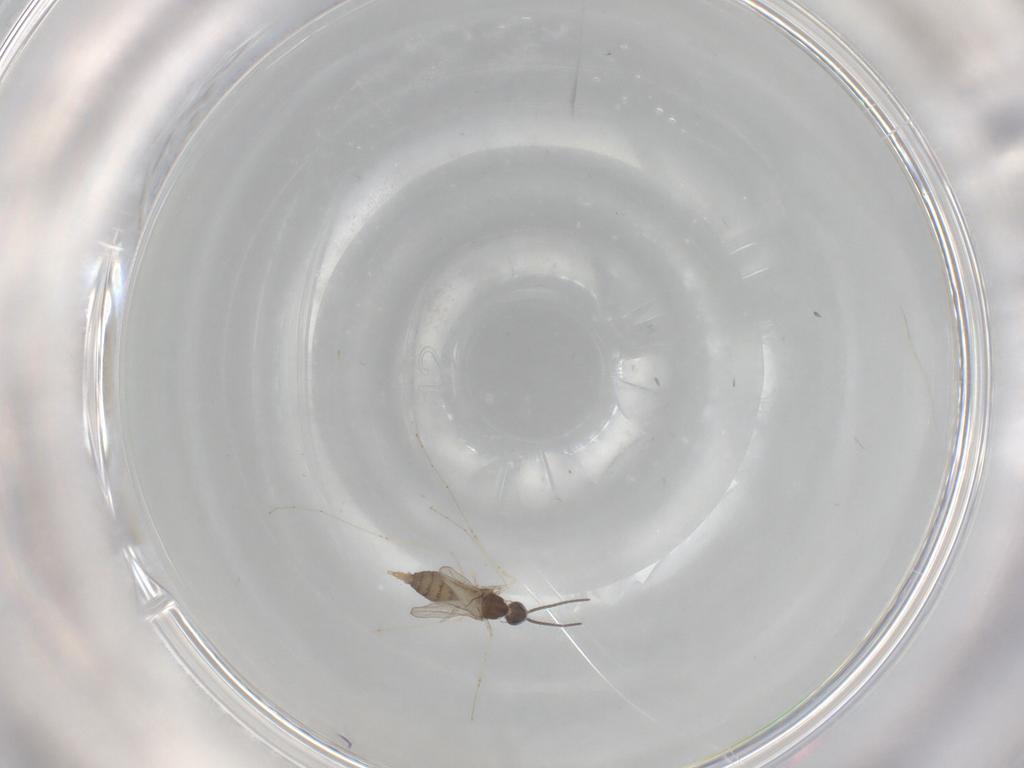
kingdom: Animalia
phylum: Arthropoda
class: Insecta
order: Diptera
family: Cecidomyiidae
